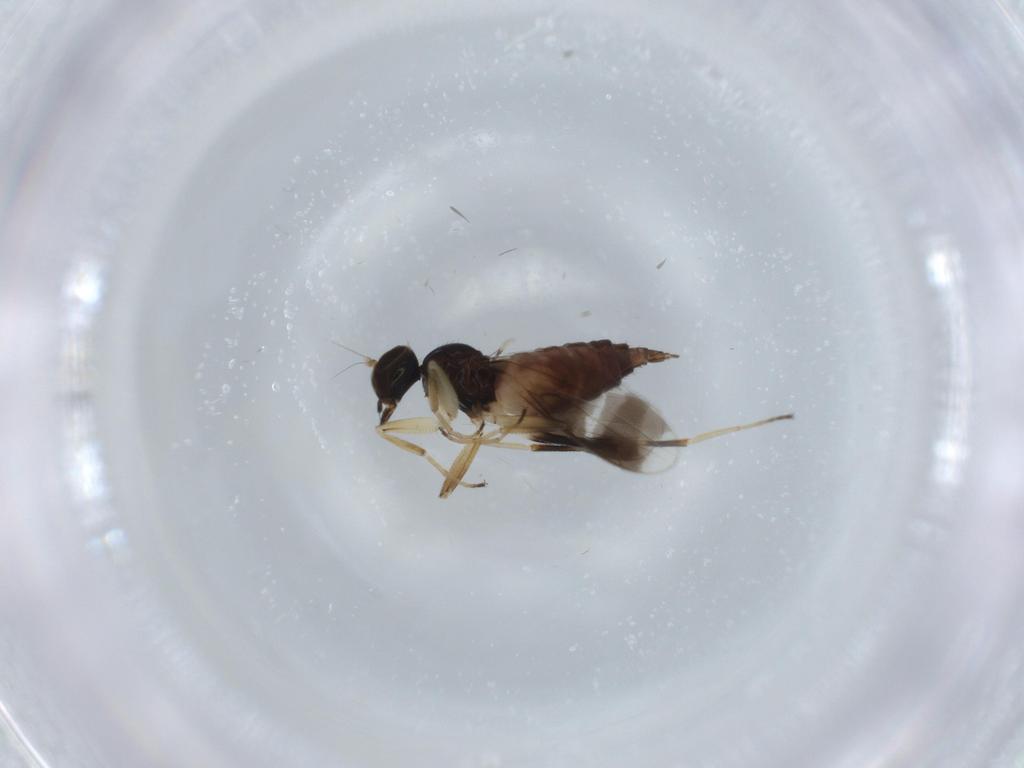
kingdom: Animalia
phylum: Arthropoda
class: Insecta
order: Diptera
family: Hybotidae
